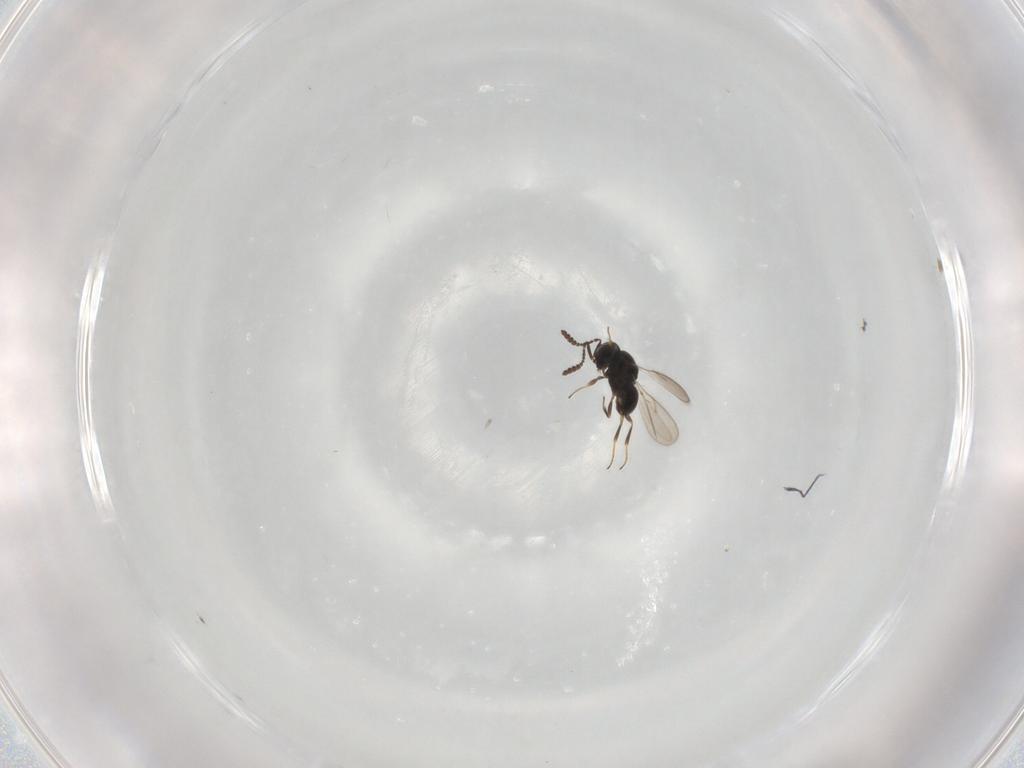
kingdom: Animalia
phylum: Arthropoda
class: Insecta
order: Hymenoptera
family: Scelionidae
